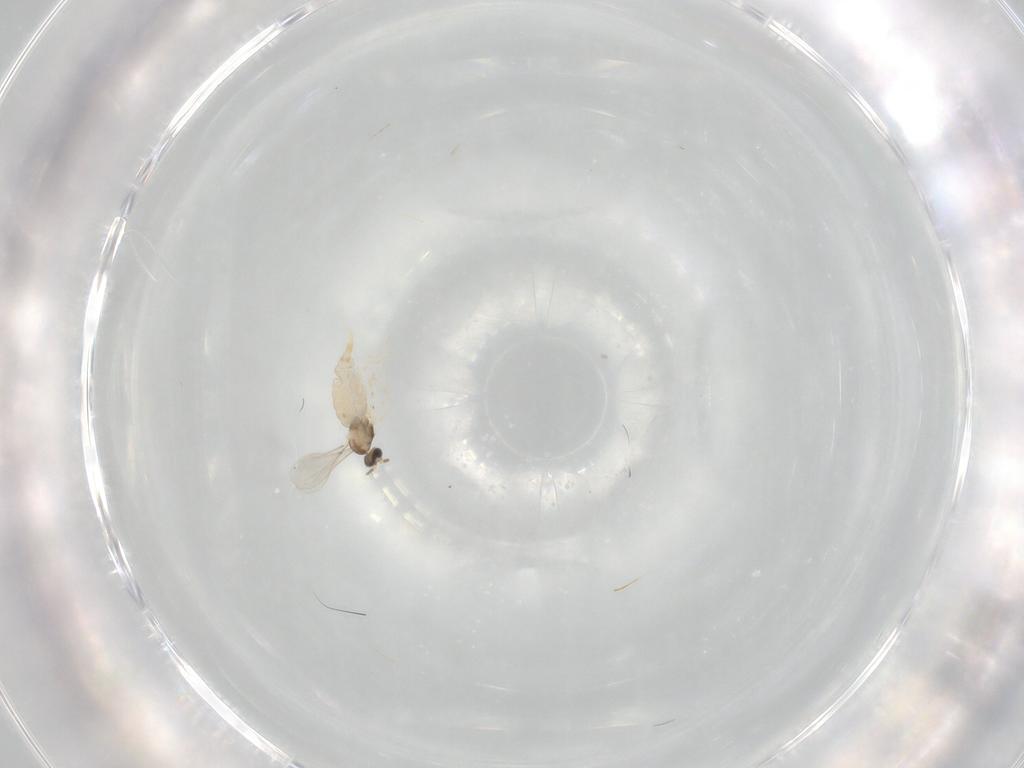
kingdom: Animalia
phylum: Arthropoda
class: Insecta
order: Diptera
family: Cecidomyiidae
